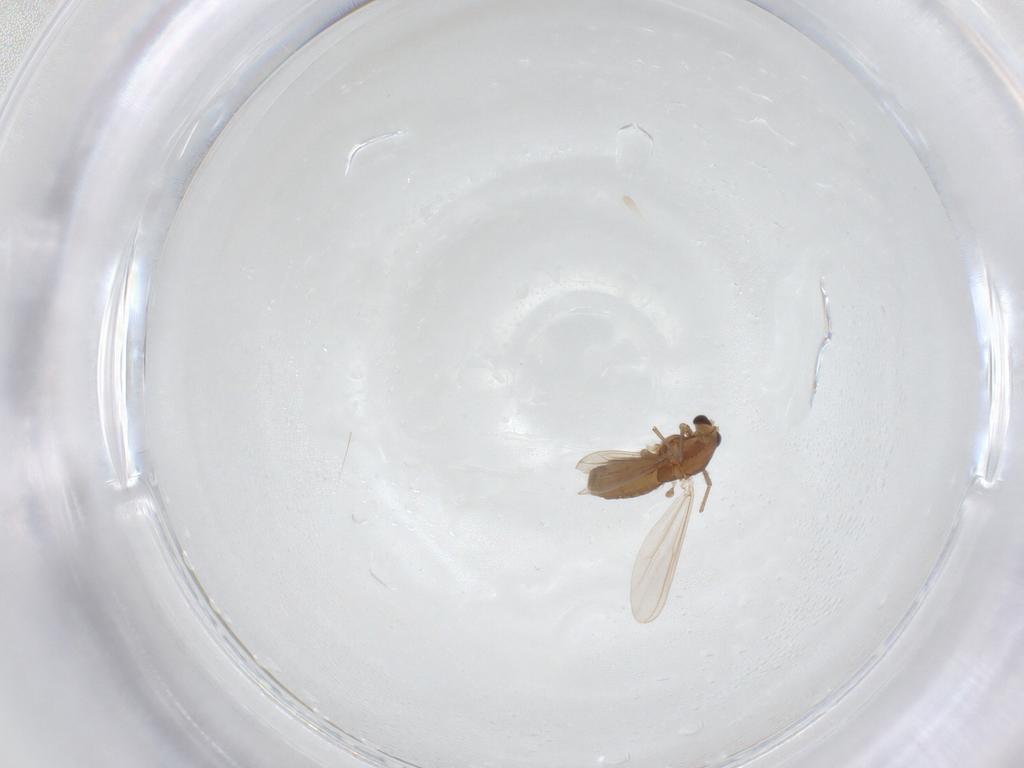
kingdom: Animalia
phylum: Arthropoda
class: Insecta
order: Diptera
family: Chironomidae
